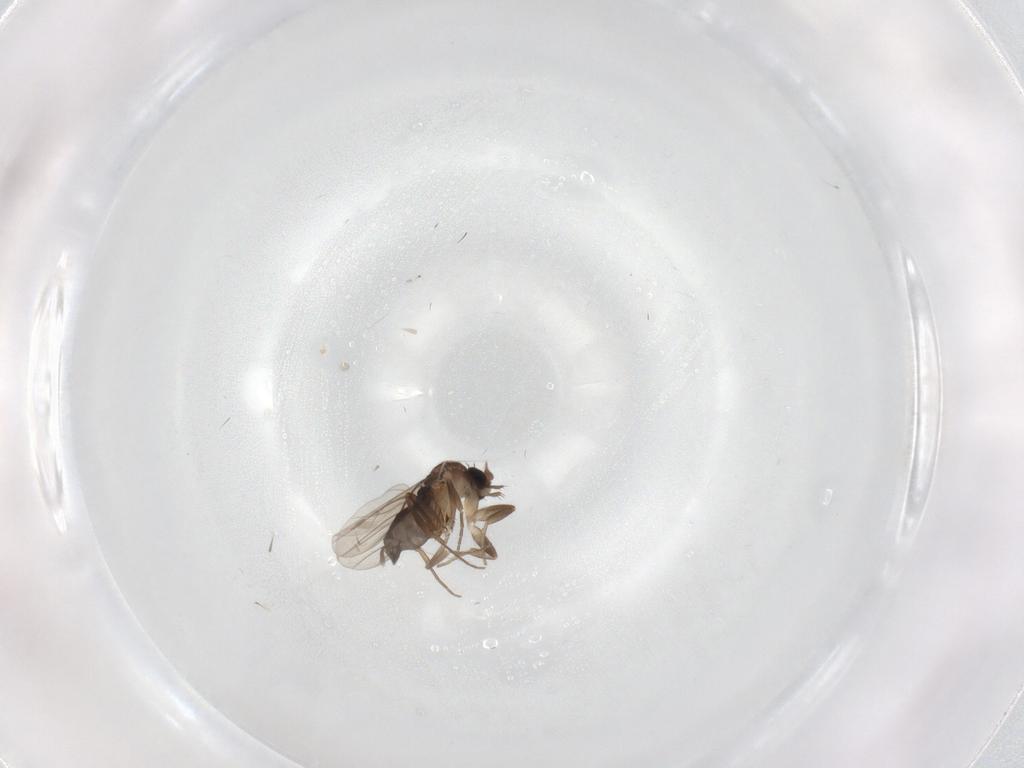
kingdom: Animalia
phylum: Arthropoda
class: Insecta
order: Diptera
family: Phoridae
